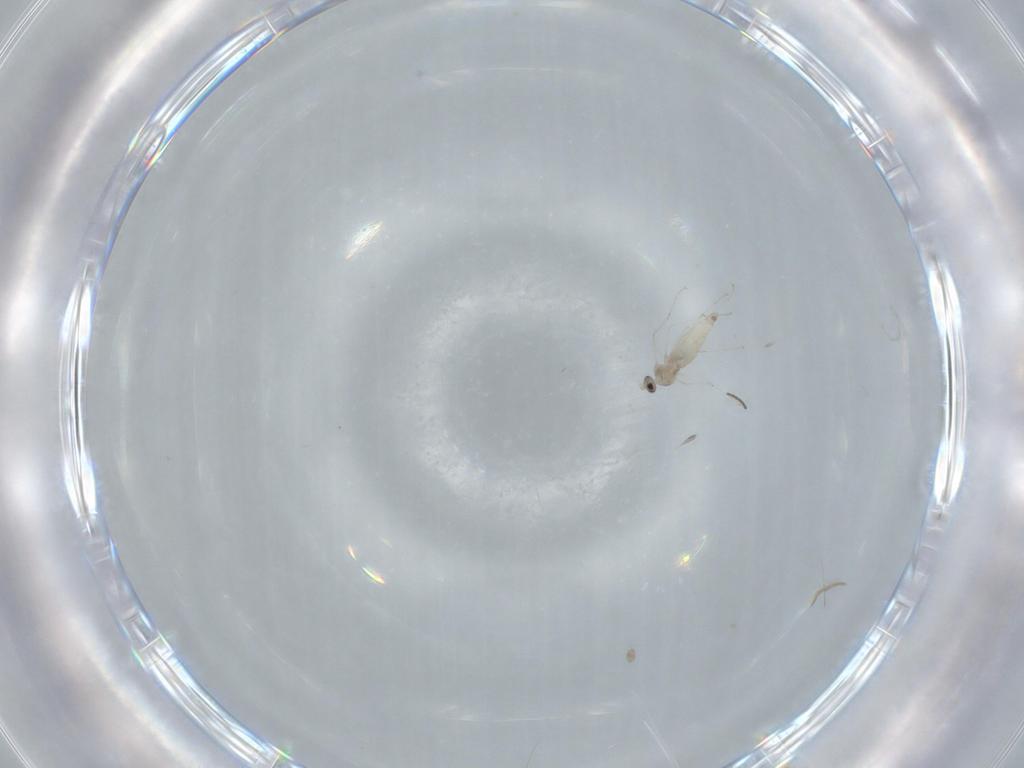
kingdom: Animalia
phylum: Arthropoda
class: Insecta
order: Diptera
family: Cecidomyiidae
